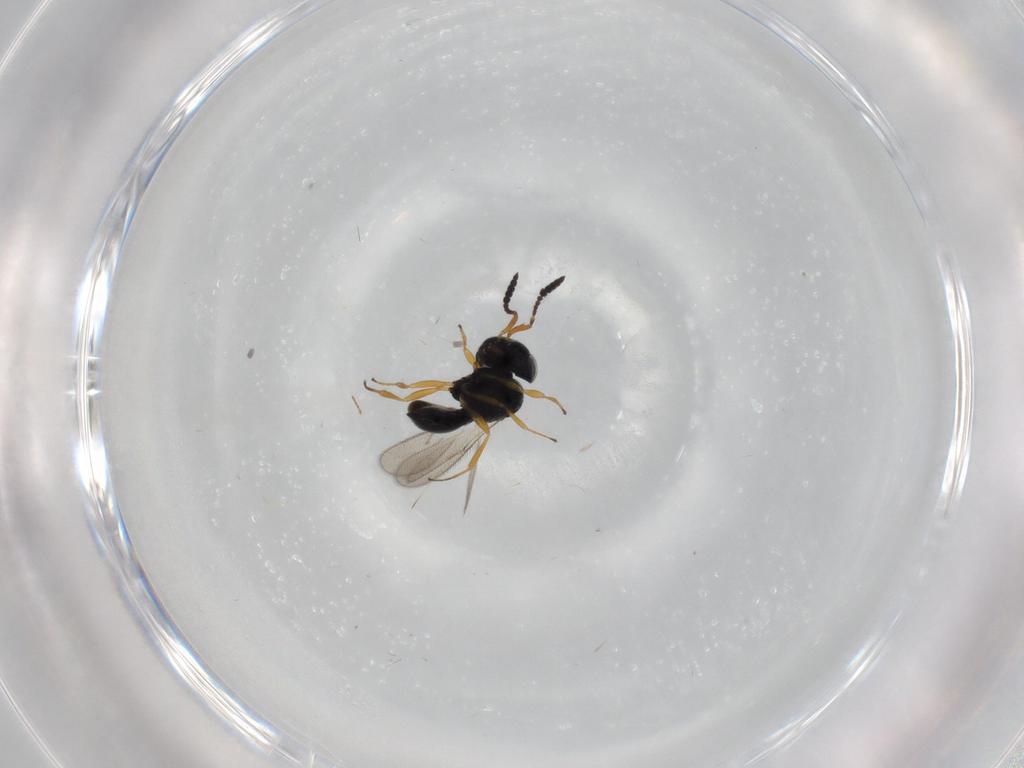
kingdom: Animalia
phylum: Arthropoda
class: Insecta
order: Hymenoptera
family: Scelionidae
